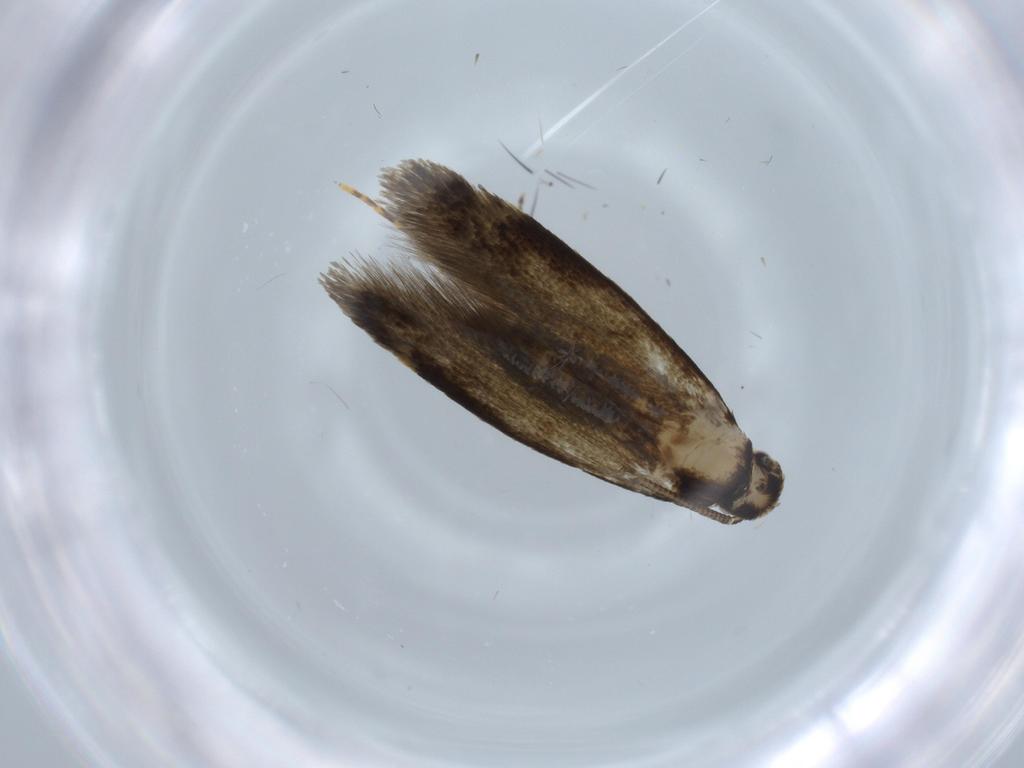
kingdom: Animalia
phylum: Arthropoda
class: Insecta
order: Lepidoptera
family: Tineidae
